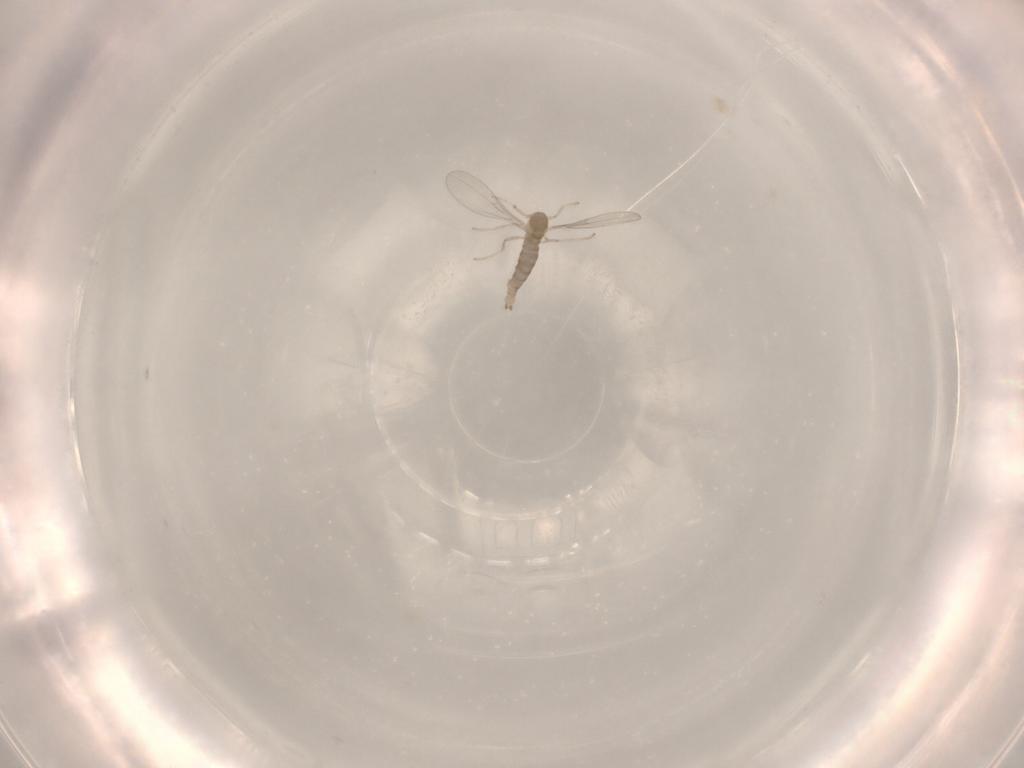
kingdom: Animalia
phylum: Arthropoda
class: Insecta
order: Diptera
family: Cecidomyiidae
